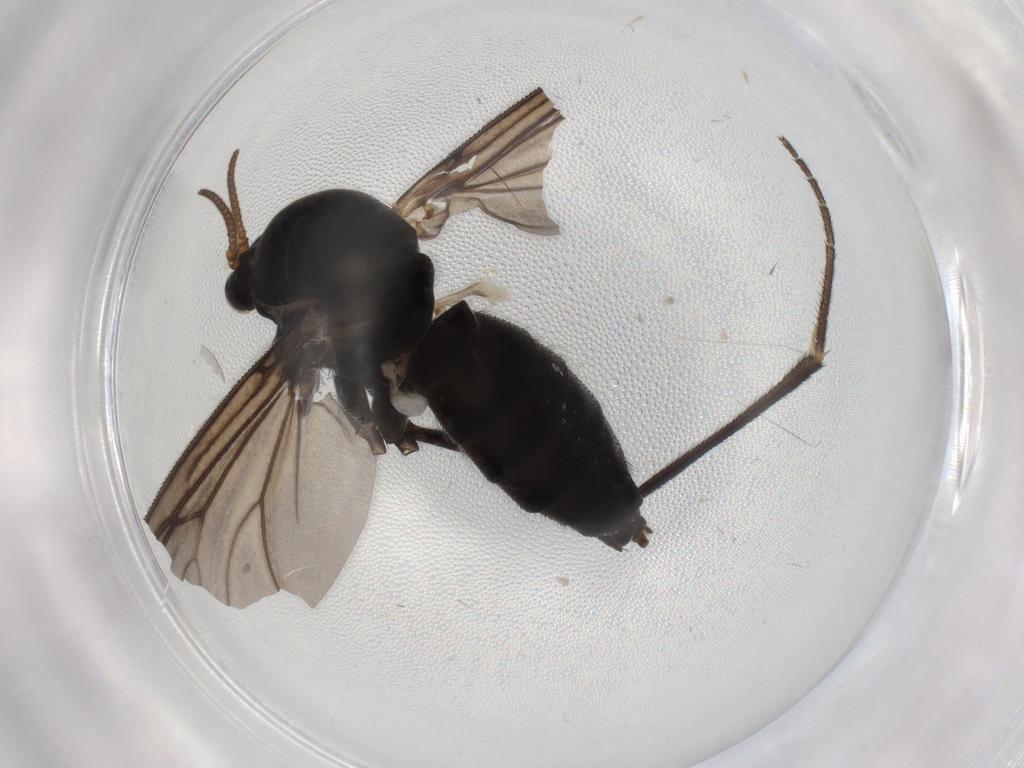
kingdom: Animalia
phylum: Arthropoda
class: Insecta
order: Diptera
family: Mycetophilidae
